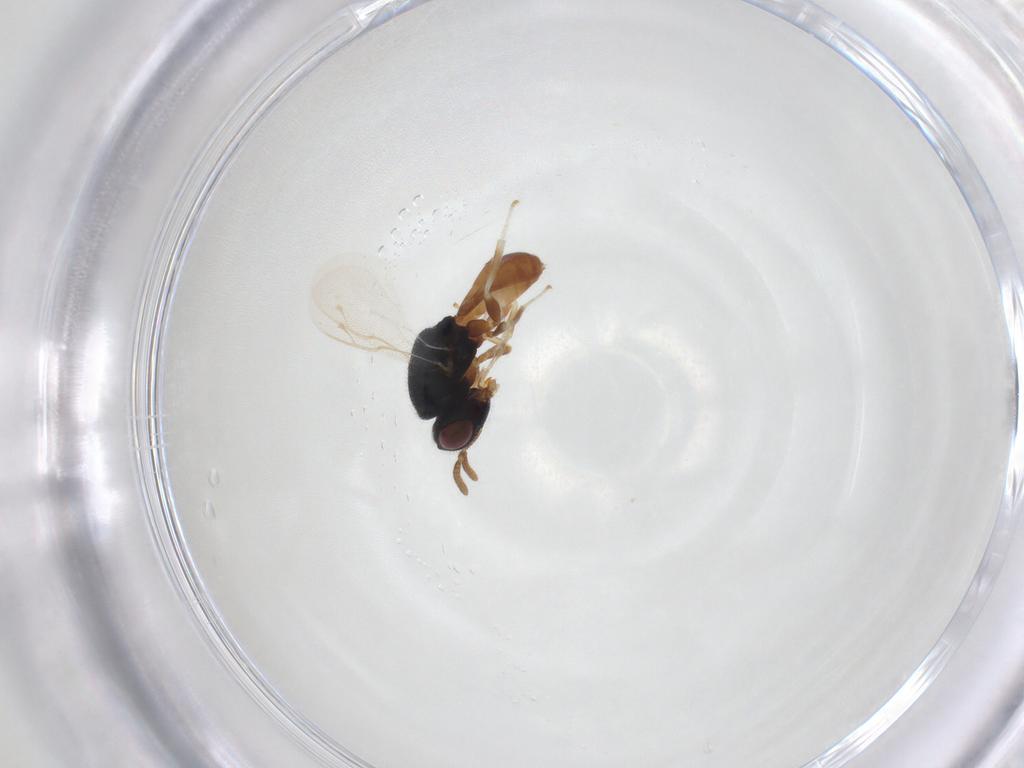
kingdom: Animalia
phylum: Arthropoda
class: Insecta
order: Hymenoptera
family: Pteromalidae
